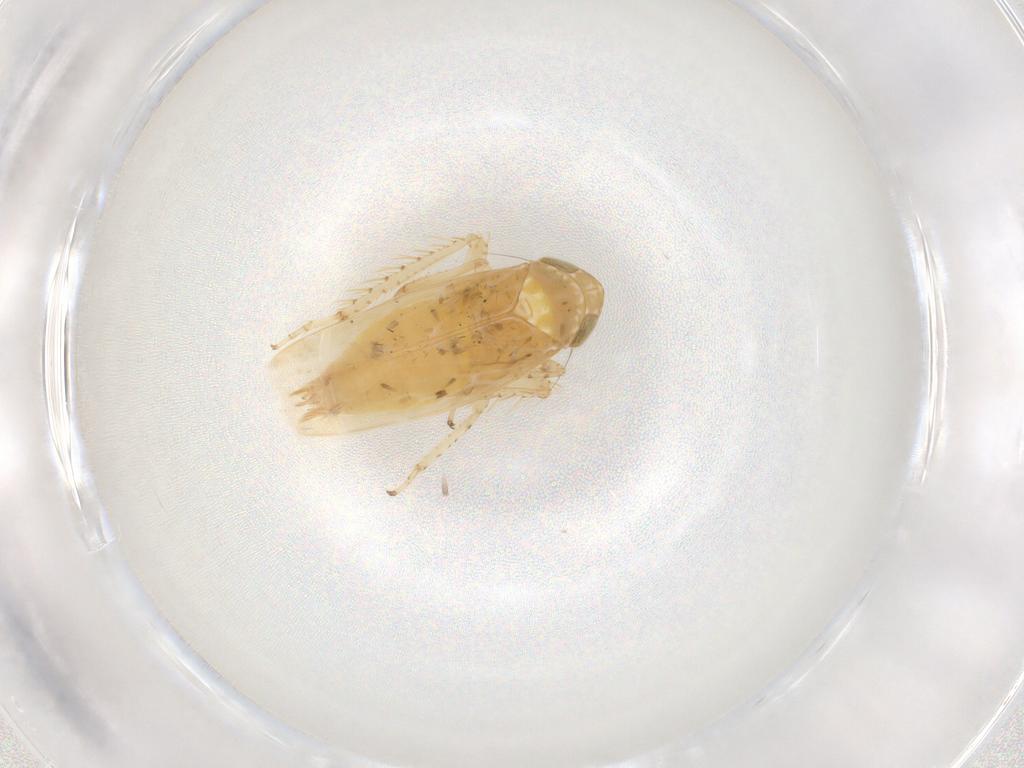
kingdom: Animalia
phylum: Arthropoda
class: Insecta
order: Hemiptera
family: Cicadellidae
